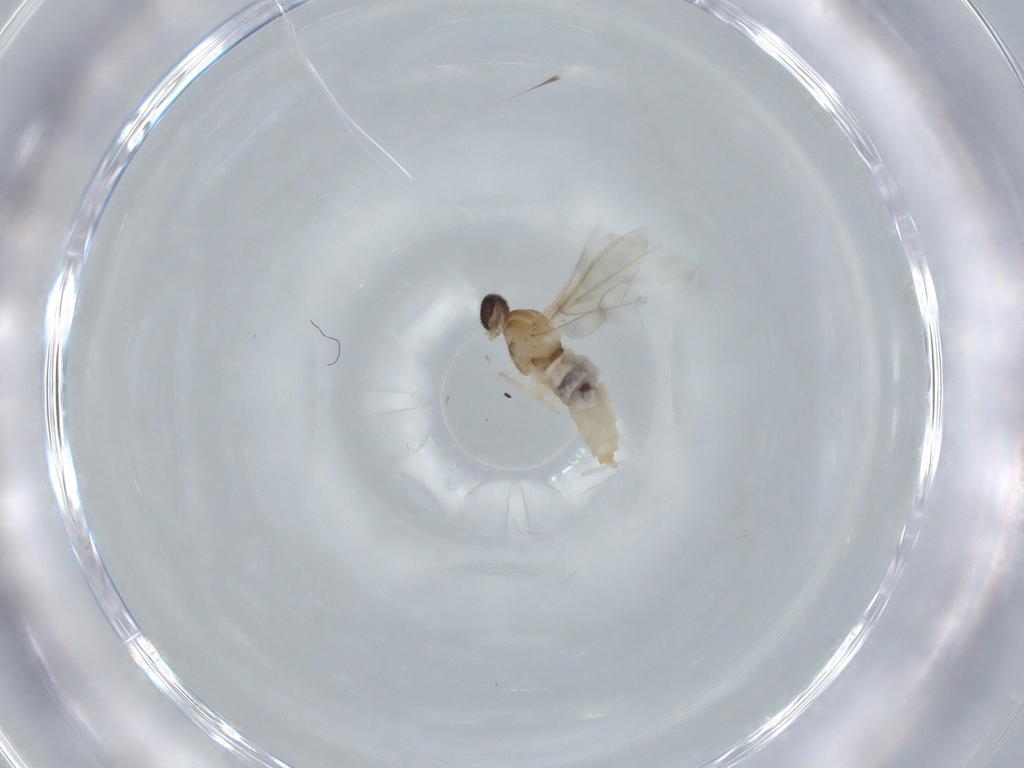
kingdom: Animalia
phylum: Arthropoda
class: Insecta
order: Diptera
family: Cecidomyiidae
